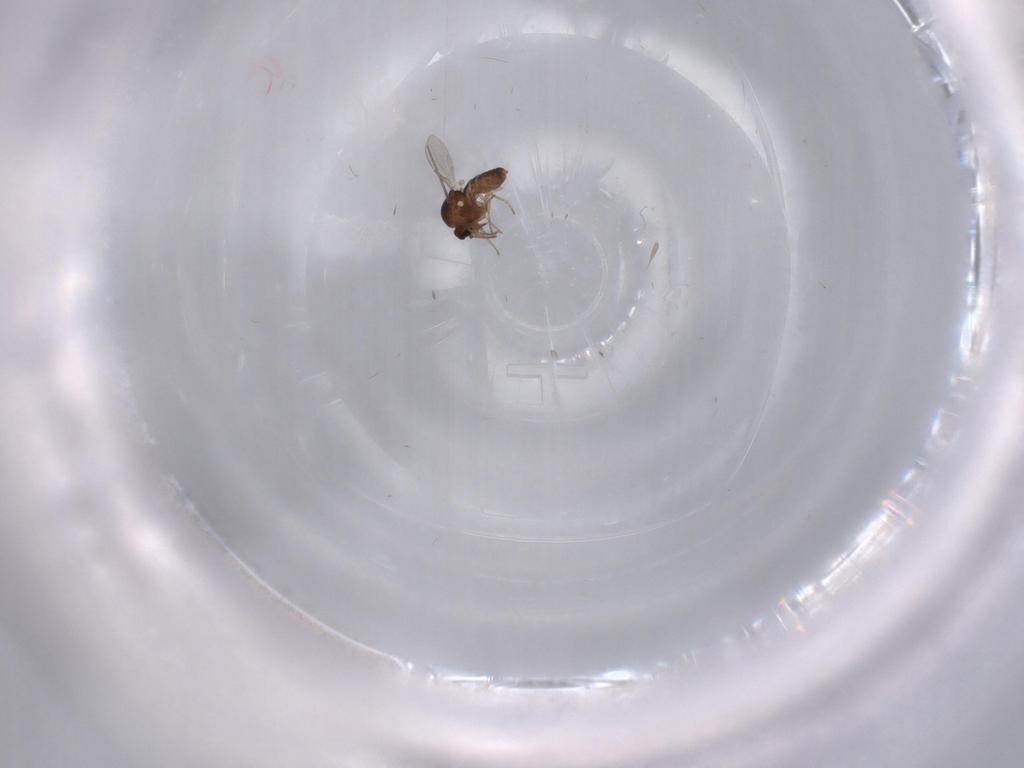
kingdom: Animalia
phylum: Arthropoda
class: Insecta
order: Diptera
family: Ceratopogonidae
